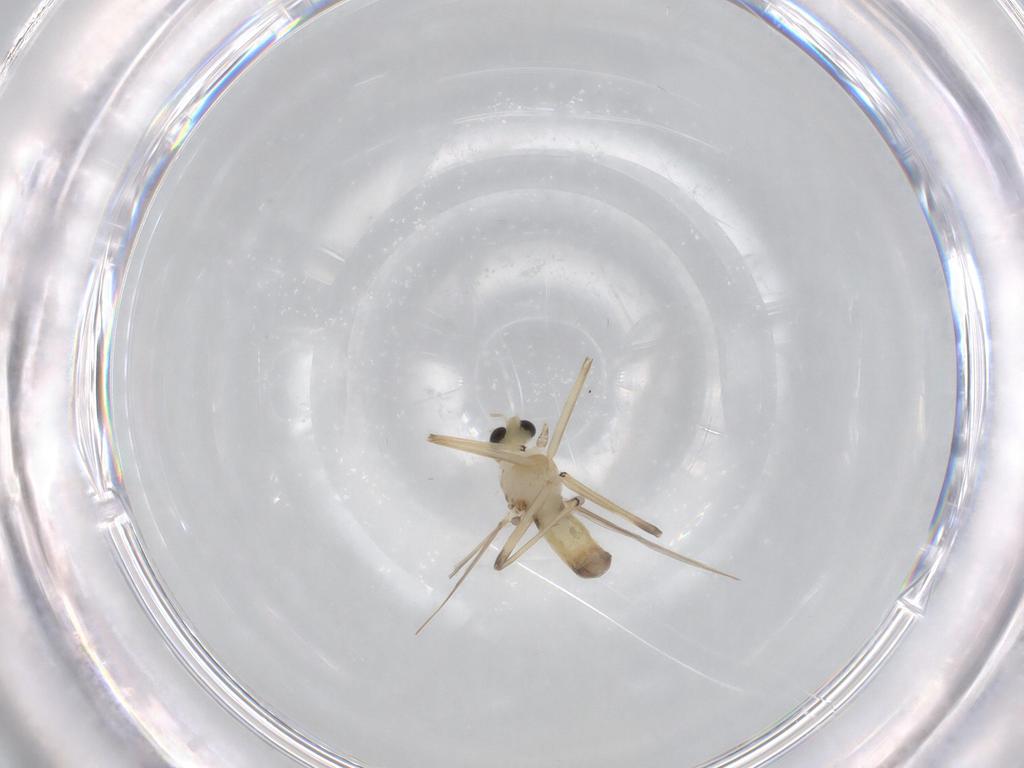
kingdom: Animalia
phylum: Arthropoda
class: Insecta
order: Diptera
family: Chironomidae
